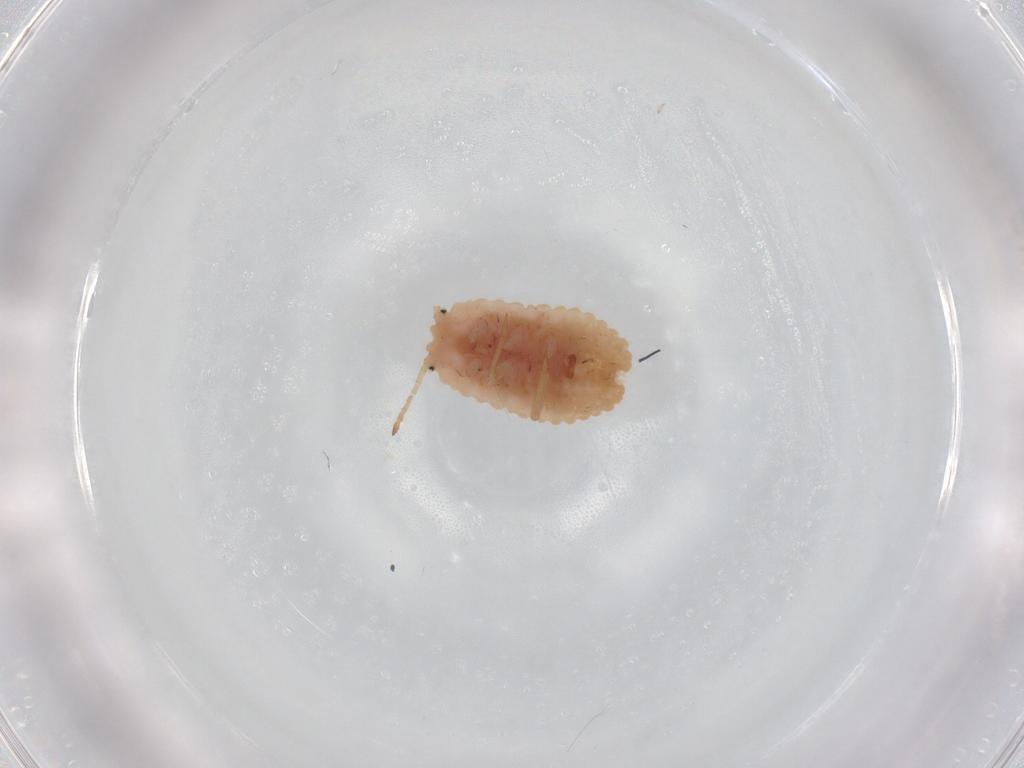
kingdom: Animalia
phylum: Arthropoda
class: Insecta
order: Hemiptera
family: Coccoidea_incertae_sedis
